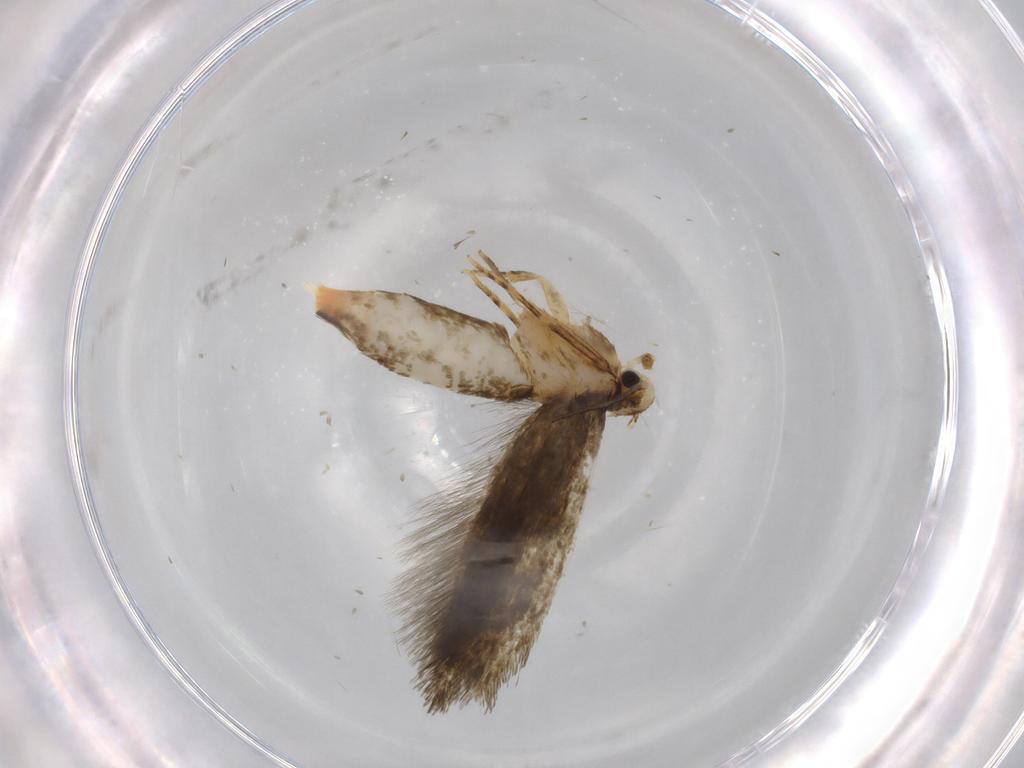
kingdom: Animalia
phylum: Arthropoda
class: Insecta
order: Lepidoptera
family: Tineidae
